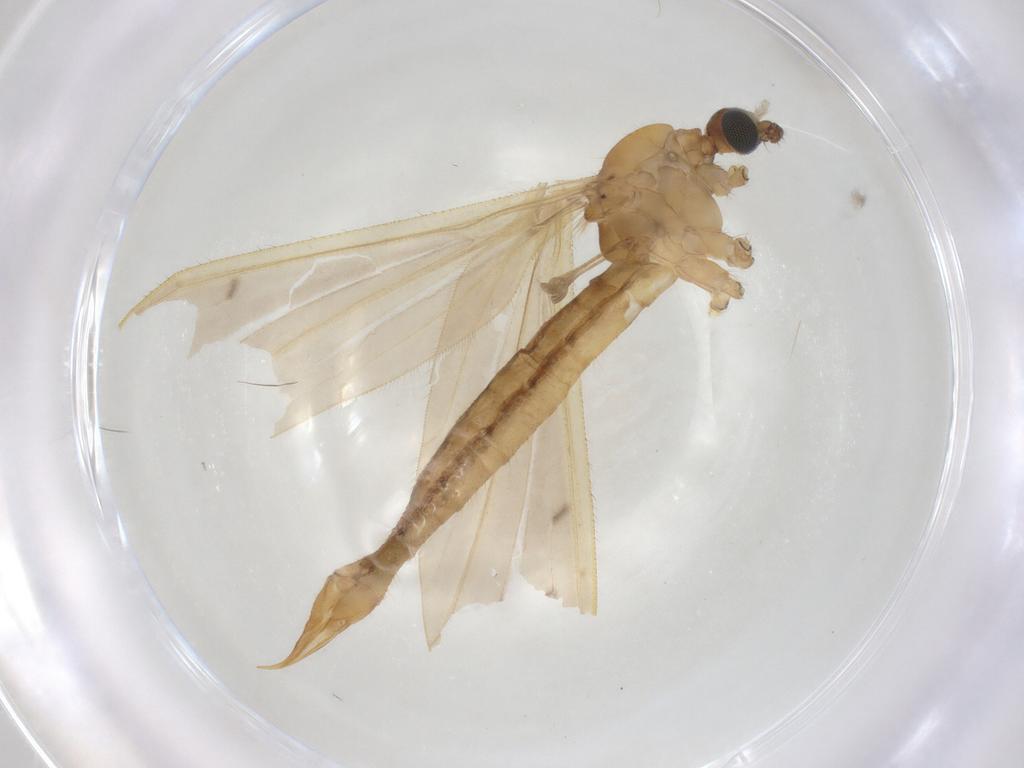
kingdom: Animalia
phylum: Arthropoda
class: Insecta
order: Diptera
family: Limoniidae
